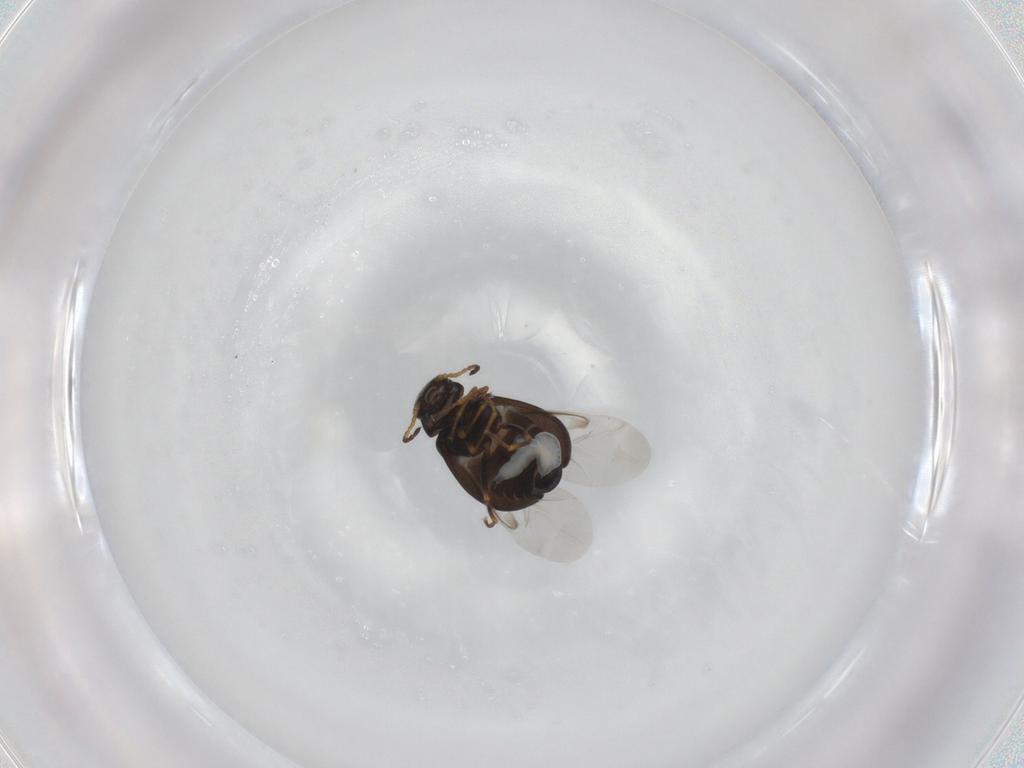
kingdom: Animalia
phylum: Arthropoda
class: Insecta
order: Coleoptera
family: Melyridae
